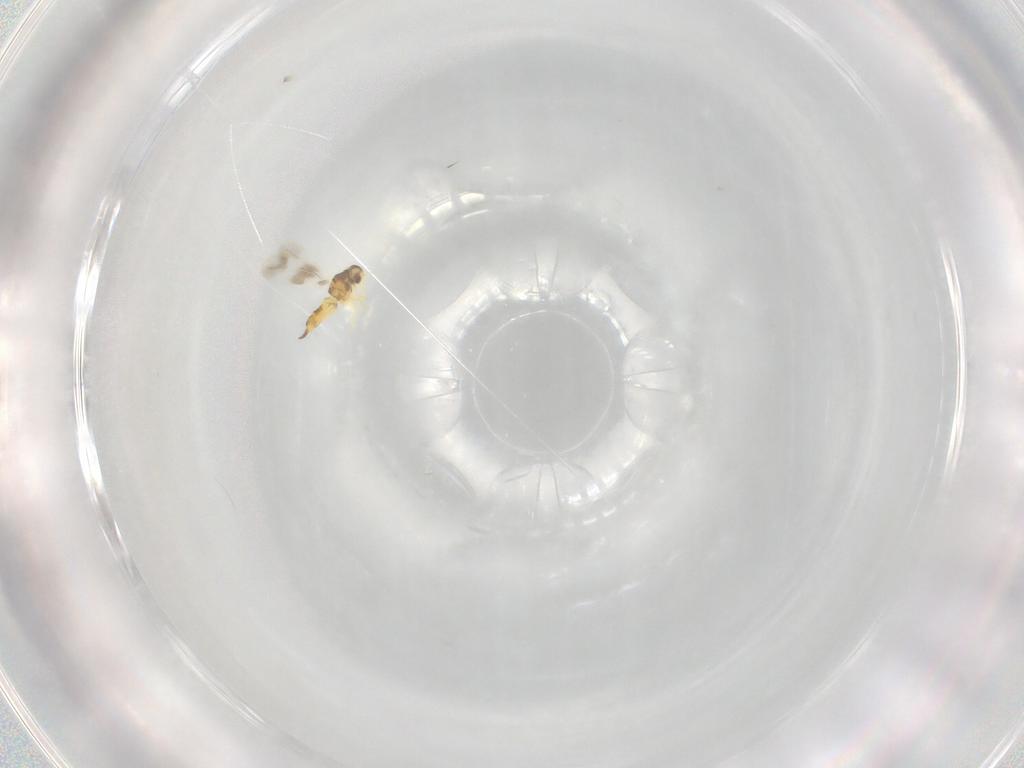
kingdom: Animalia
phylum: Arthropoda
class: Insecta
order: Hemiptera
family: Aleyrodidae
